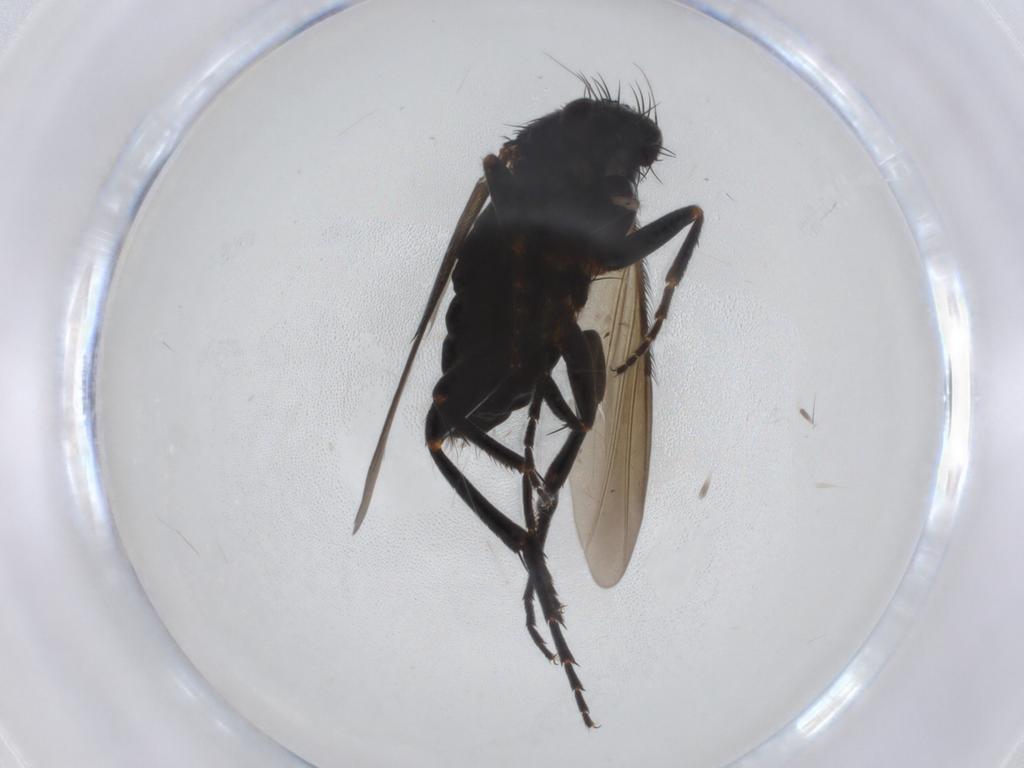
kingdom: Animalia
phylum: Arthropoda
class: Insecta
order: Diptera
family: Phoridae
